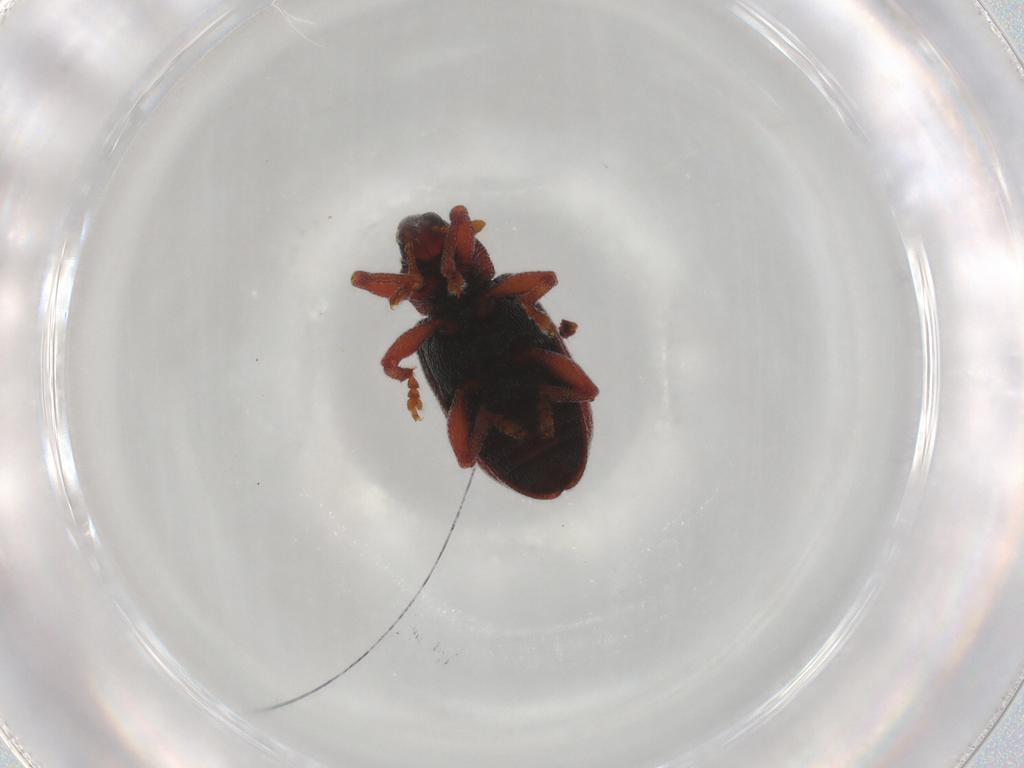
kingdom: Animalia
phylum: Arthropoda
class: Insecta
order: Coleoptera
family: Curculionidae
